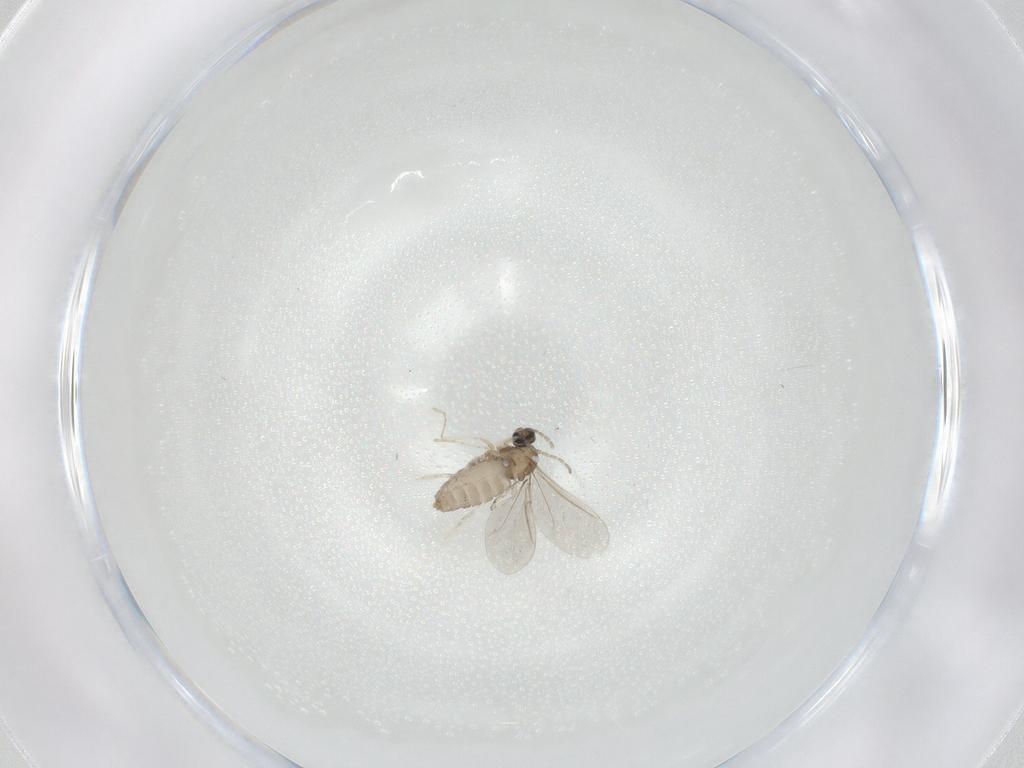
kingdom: Animalia
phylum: Arthropoda
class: Insecta
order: Diptera
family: Cecidomyiidae
